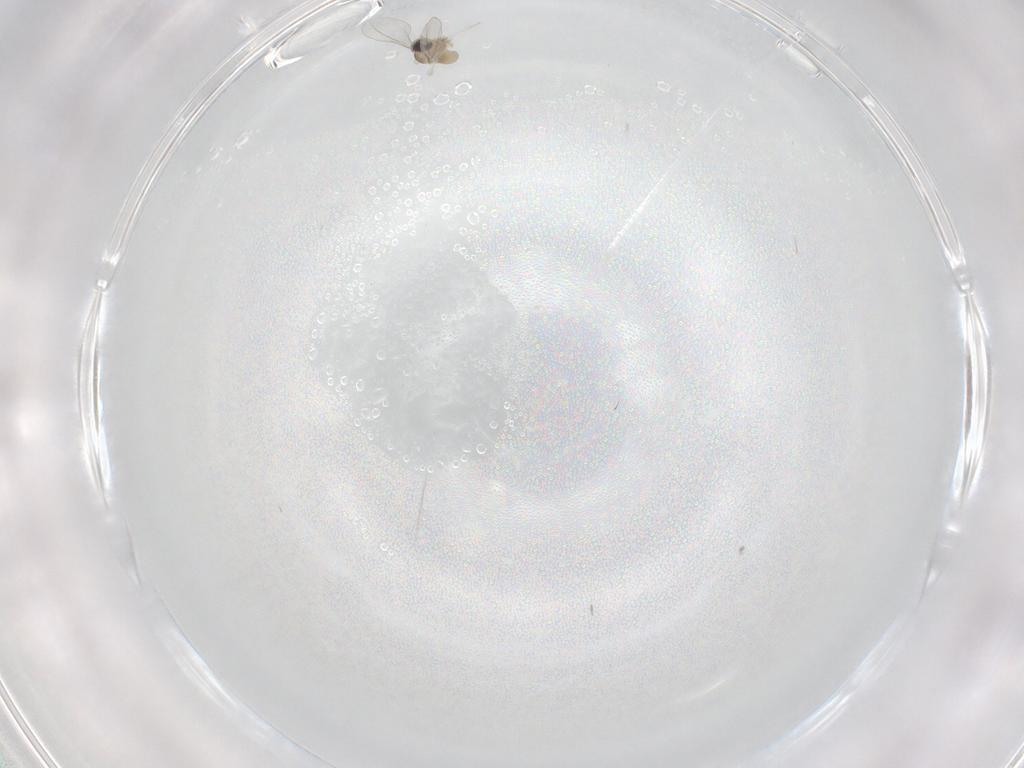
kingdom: Animalia
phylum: Arthropoda
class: Insecta
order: Diptera
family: Cecidomyiidae
